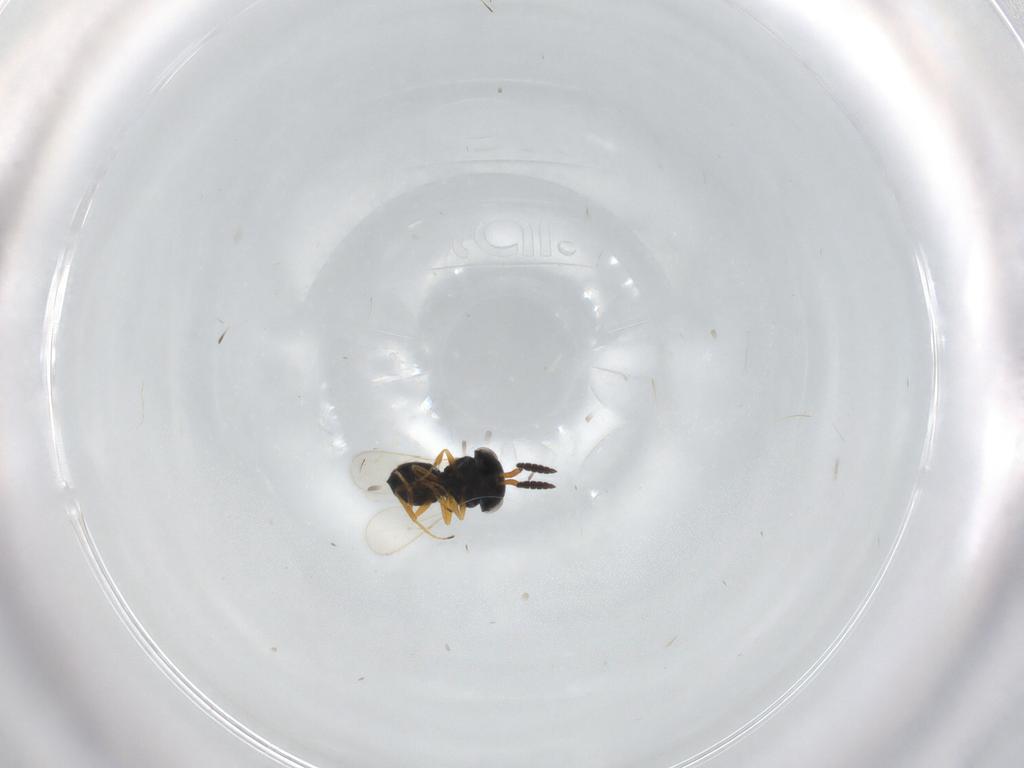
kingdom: Animalia
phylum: Arthropoda
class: Insecta
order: Hymenoptera
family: Scelionidae
